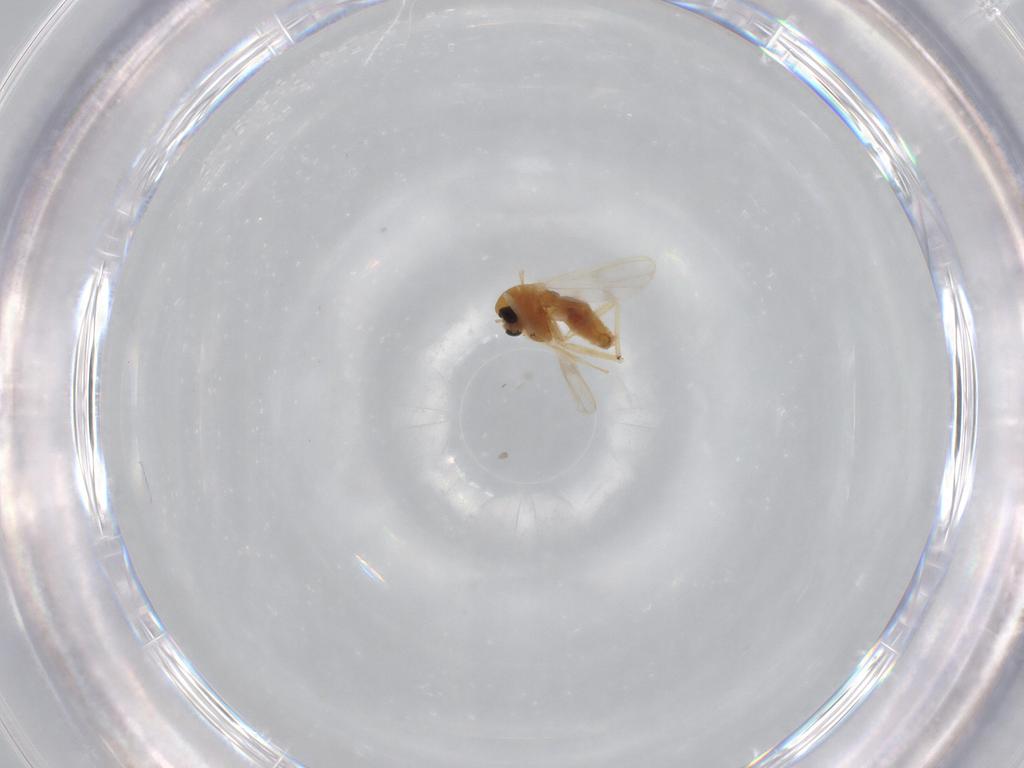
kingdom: Animalia
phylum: Arthropoda
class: Insecta
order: Diptera
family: Chironomidae
